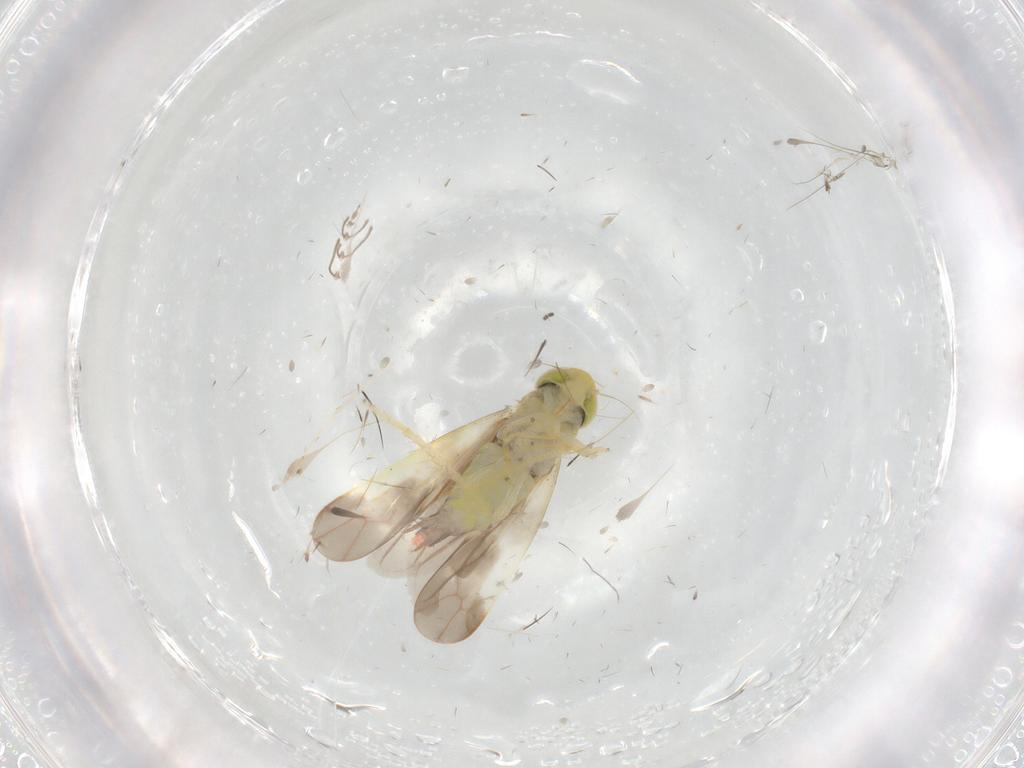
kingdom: Animalia
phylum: Arthropoda
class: Insecta
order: Hemiptera
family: Cicadellidae
